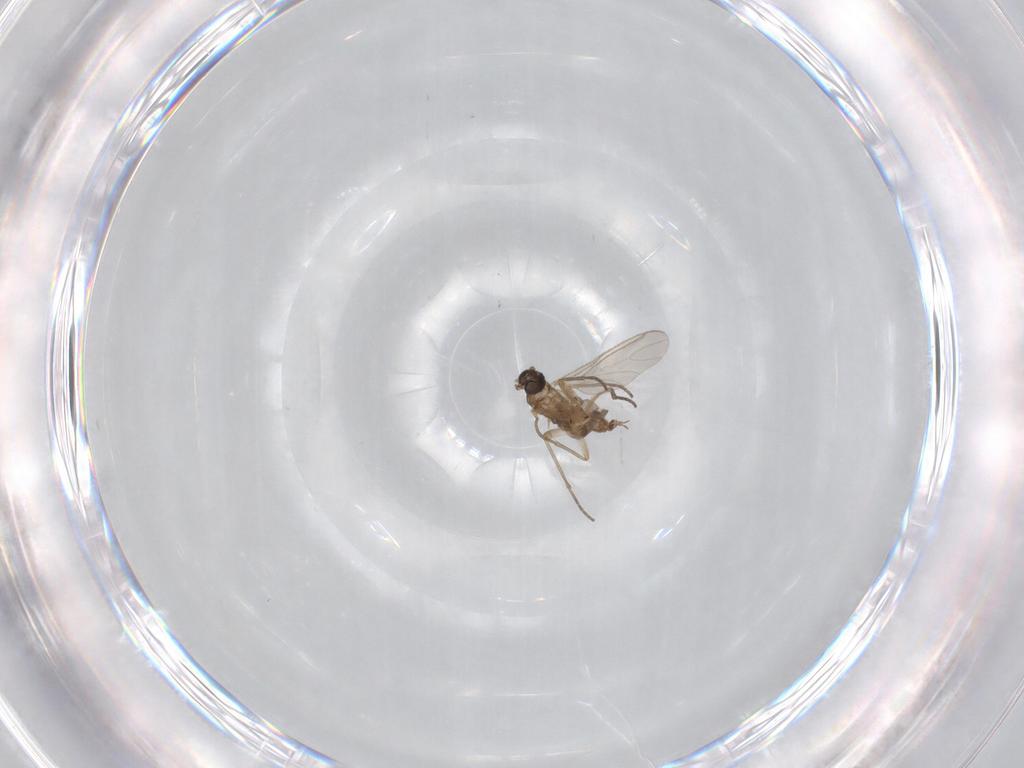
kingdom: Animalia
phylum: Arthropoda
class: Insecta
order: Diptera
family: Sciaridae
